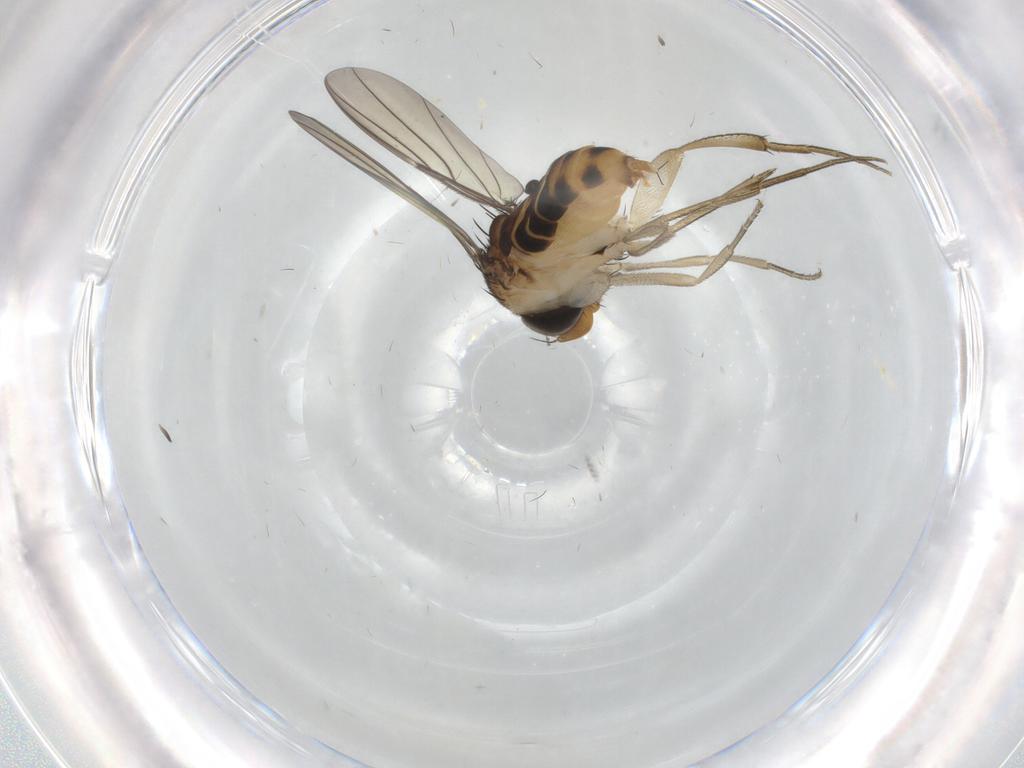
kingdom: Animalia
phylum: Arthropoda
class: Insecta
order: Diptera
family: Phoridae
